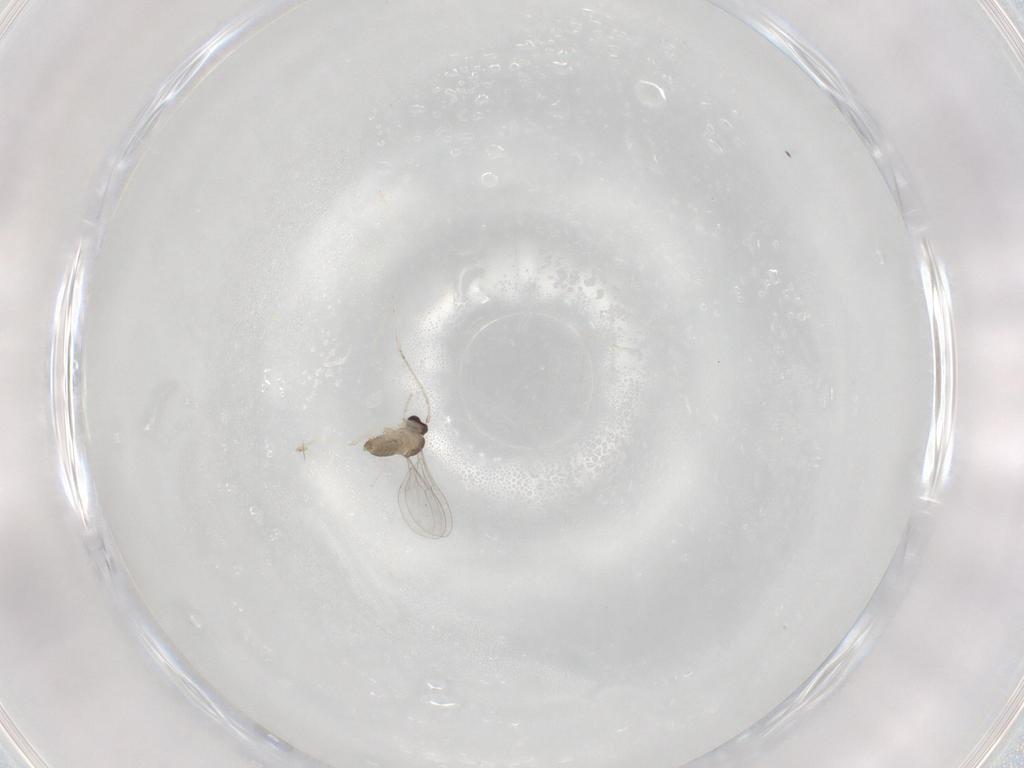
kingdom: Animalia
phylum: Arthropoda
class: Insecta
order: Diptera
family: Cecidomyiidae
